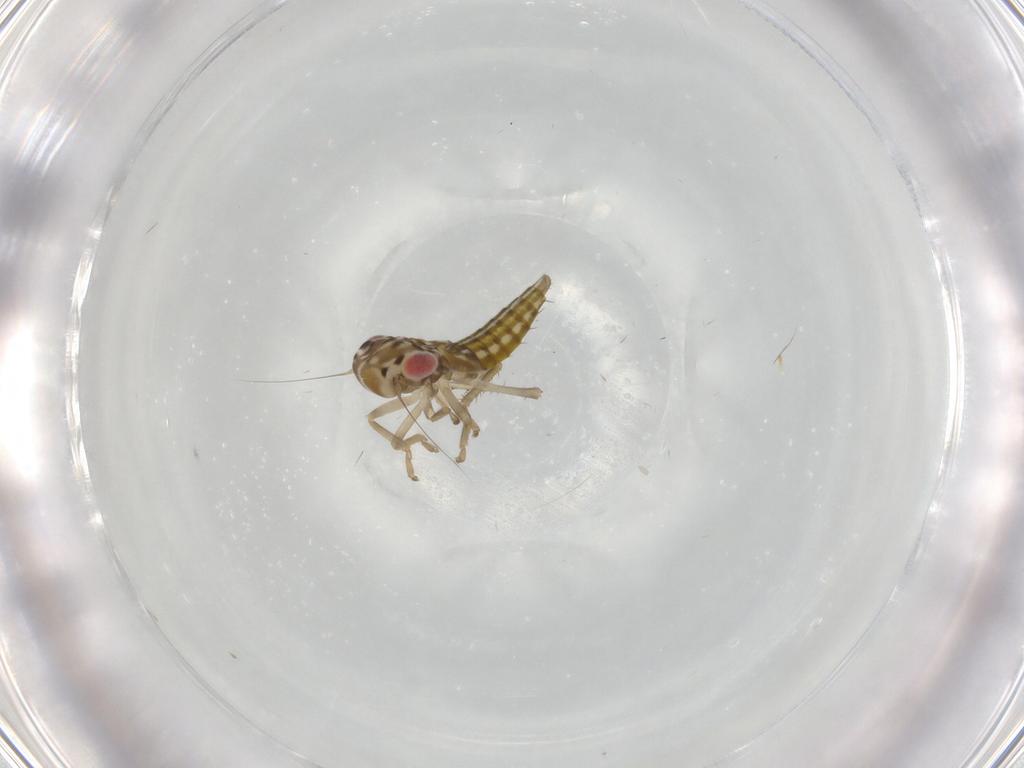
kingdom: Animalia
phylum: Arthropoda
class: Insecta
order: Hemiptera
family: Cicadellidae
